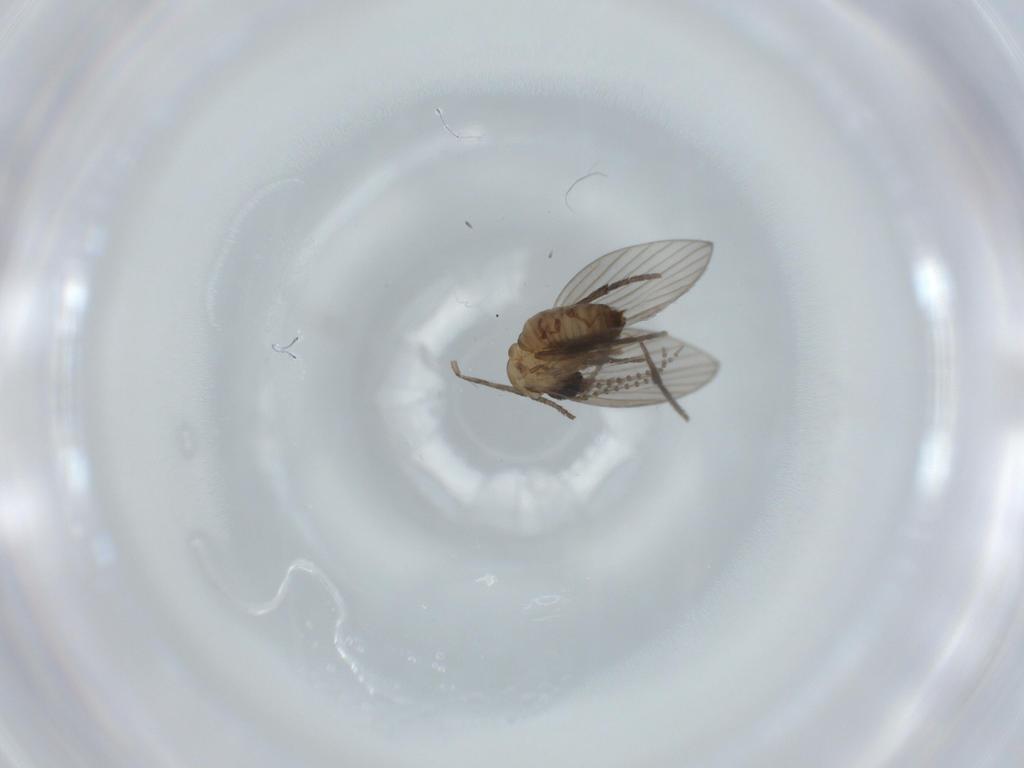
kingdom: Animalia
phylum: Arthropoda
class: Insecta
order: Diptera
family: Psychodidae
